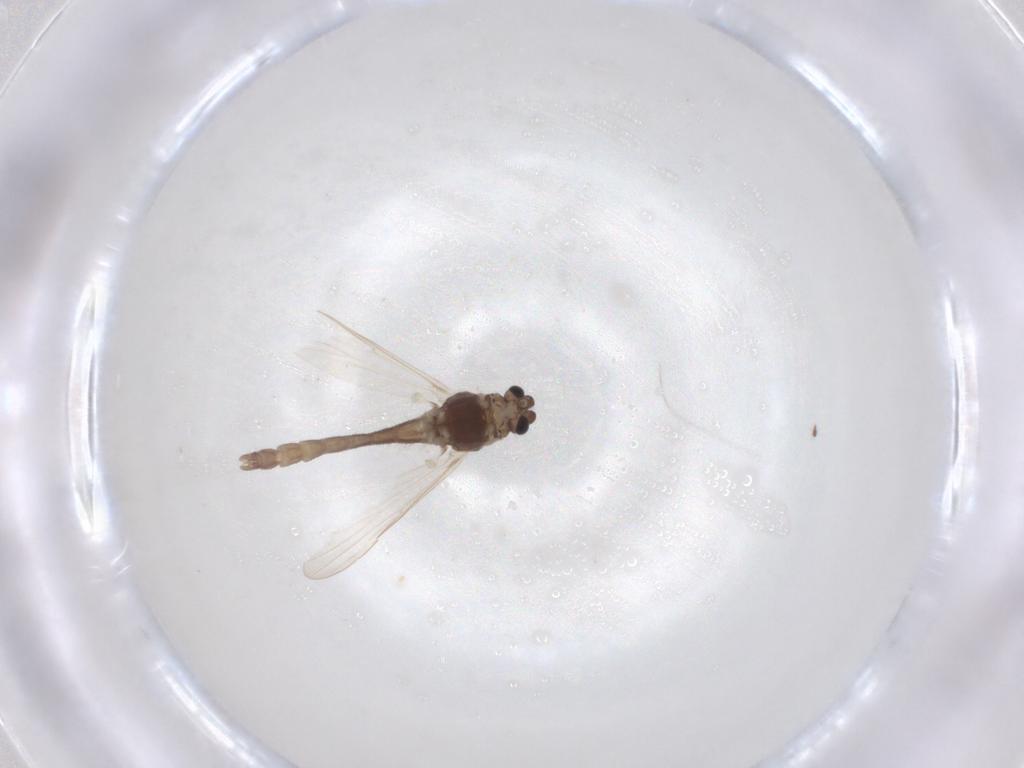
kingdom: Animalia
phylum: Arthropoda
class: Insecta
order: Diptera
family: Chironomidae
